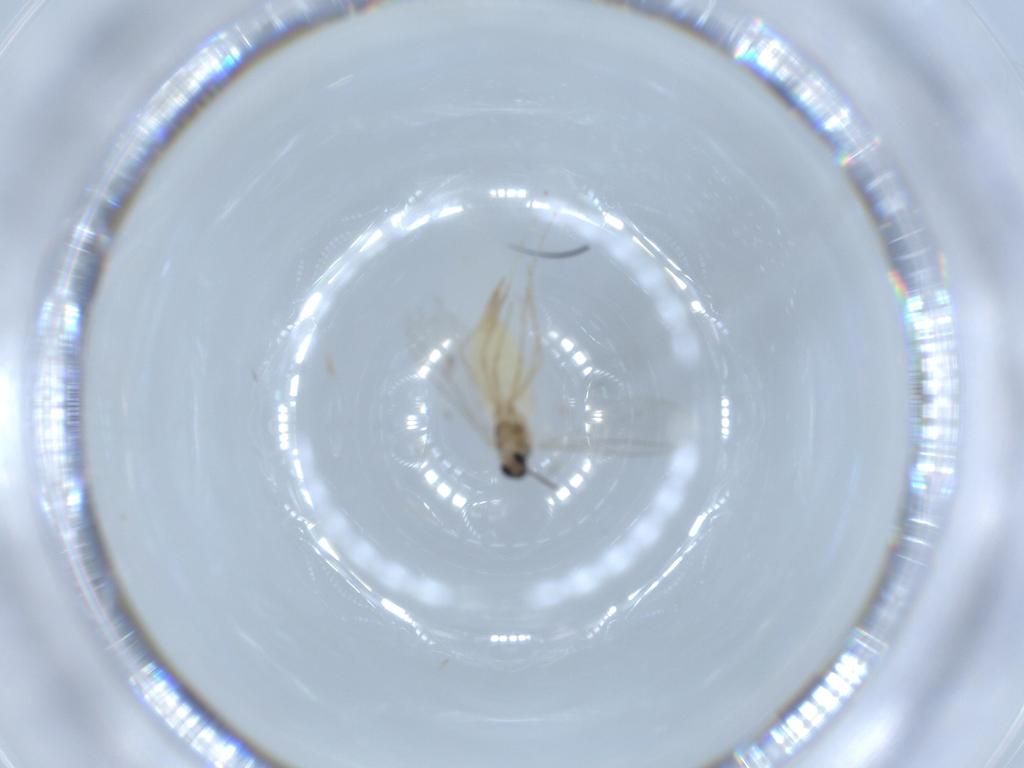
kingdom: Animalia
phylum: Arthropoda
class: Insecta
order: Diptera
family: Cecidomyiidae
